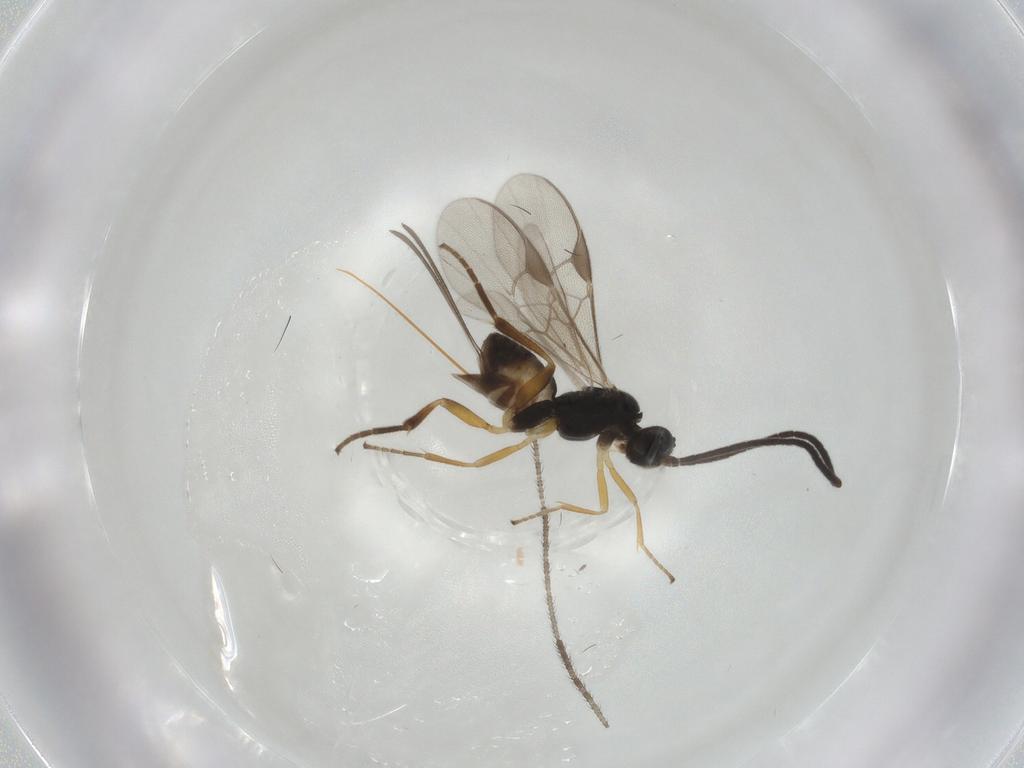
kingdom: Animalia
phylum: Arthropoda
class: Insecta
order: Hymenoptera
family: Braconidae
